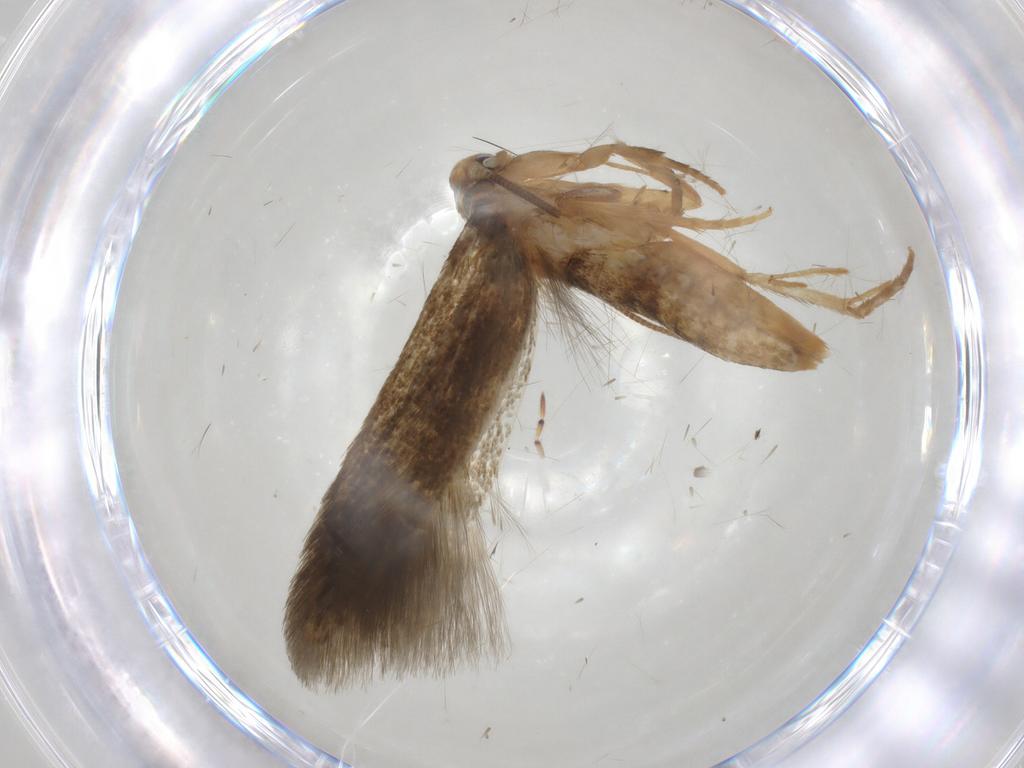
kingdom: Animalia
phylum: Arthropoda
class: Insecta
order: Lepidoptera
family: Tineidae
